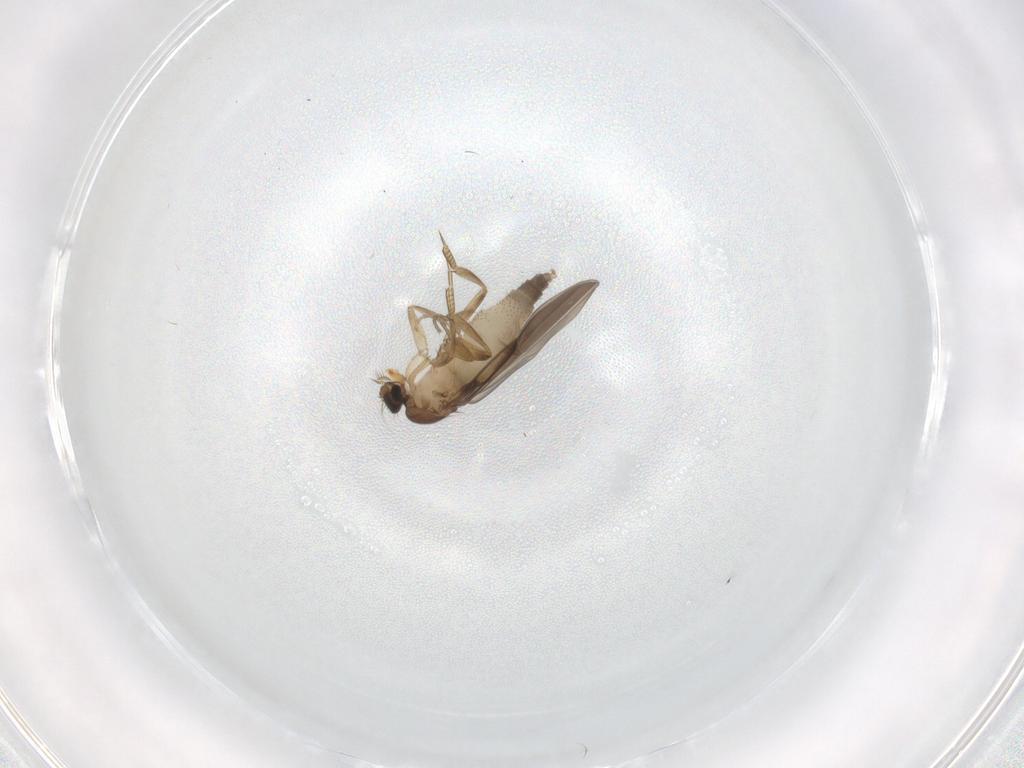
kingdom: Animalia
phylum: Arthropoda
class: Insecta
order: Diptera
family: Phoridae
